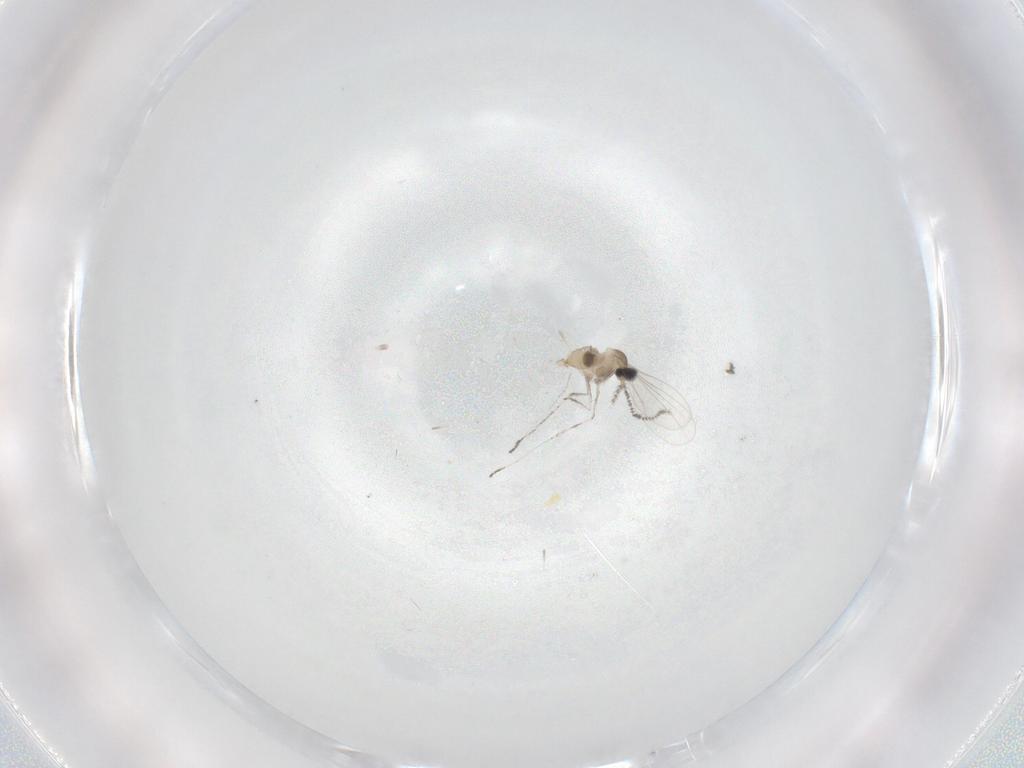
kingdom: Animalia
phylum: Arthropoda
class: Insecta
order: Diptera
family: Cecidomyiidae
